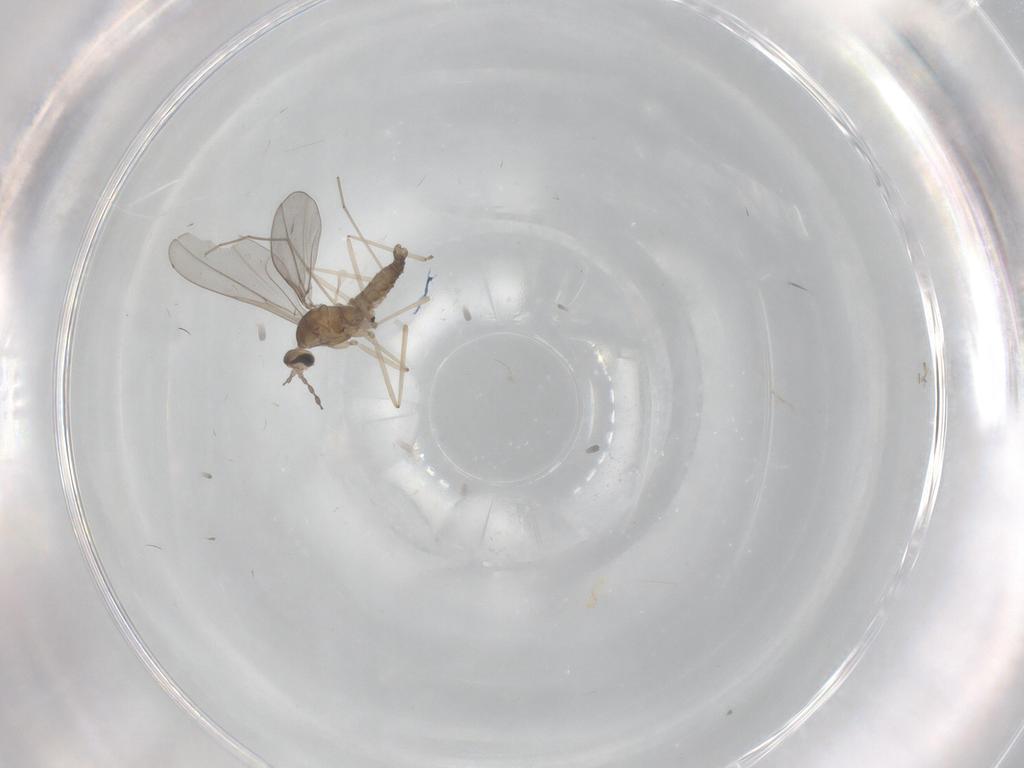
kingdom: Animalia
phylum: Arthropoda
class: Insecta
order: Diptera
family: Cecidomyiidae
